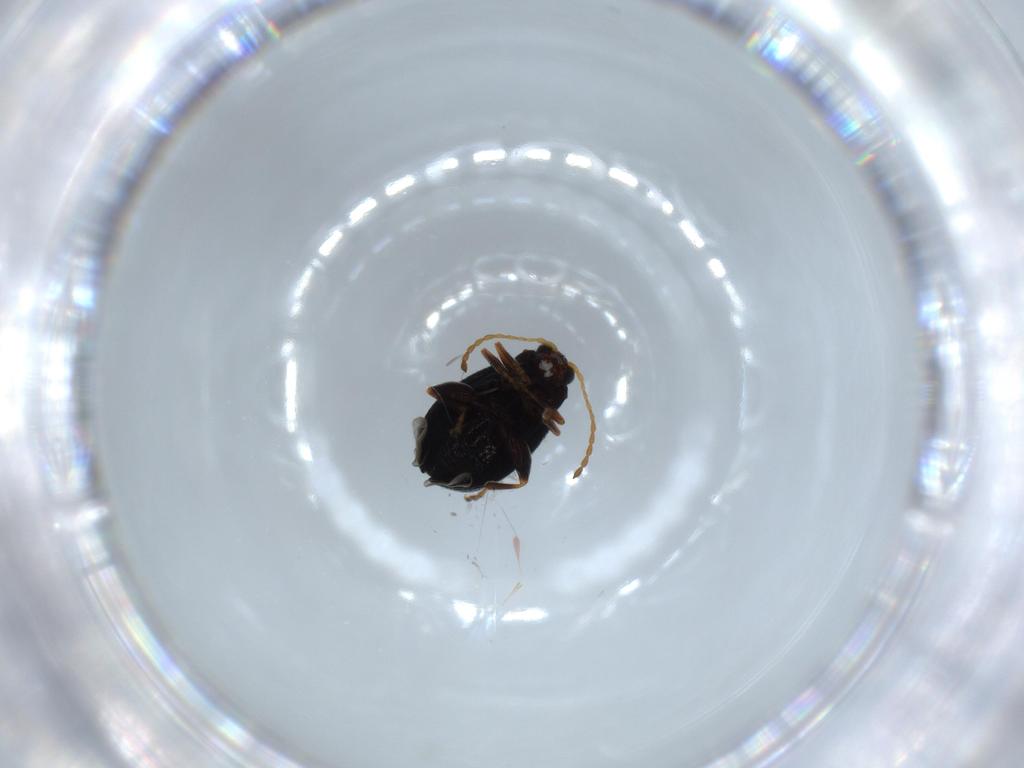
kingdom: Animalia
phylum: Arthropoda
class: Insecta
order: Coleoptera
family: Chrysomelidae
